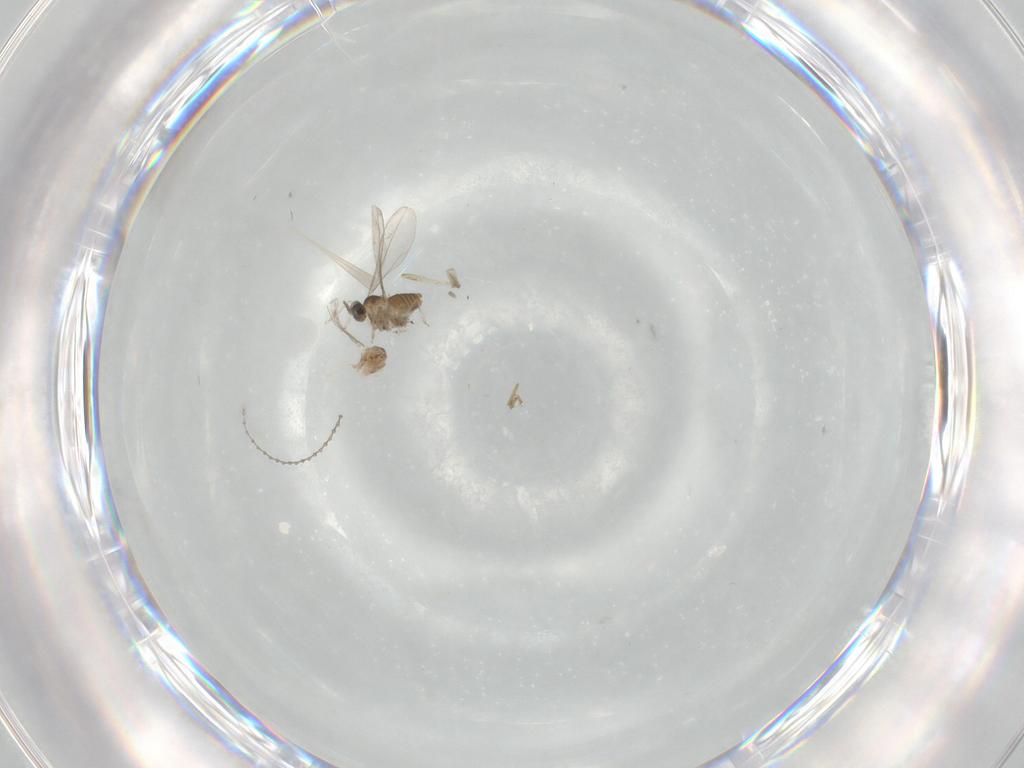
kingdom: Animalia
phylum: Arthropoda
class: Insecta
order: Diptera
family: Cecidomyiidae
